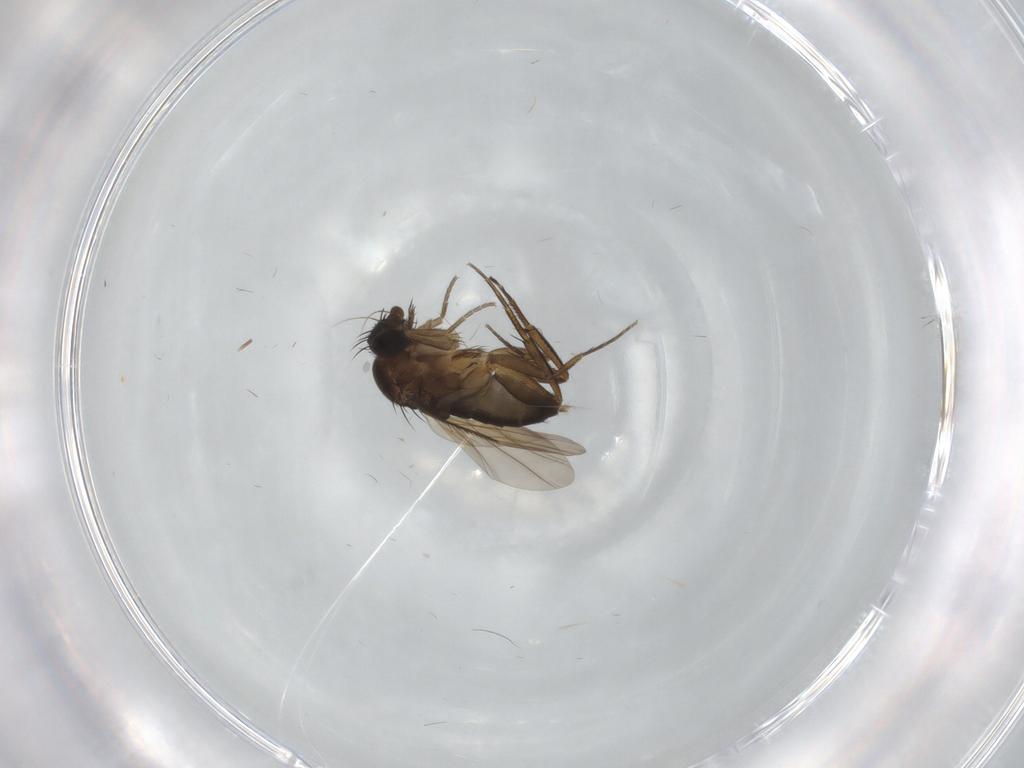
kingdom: Animalia
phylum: Arthropoda
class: Insecta
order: Diptera
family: Phoridae
